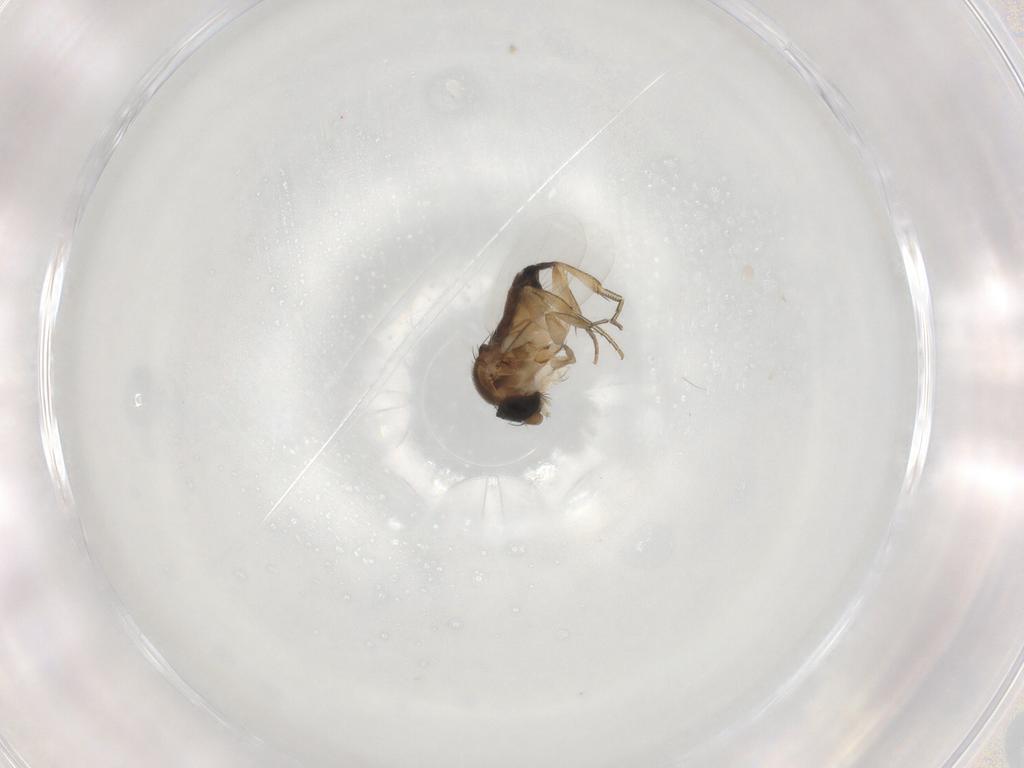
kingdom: Animalia
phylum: Arthropoda
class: Insecta
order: Diptera
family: Phoridae
